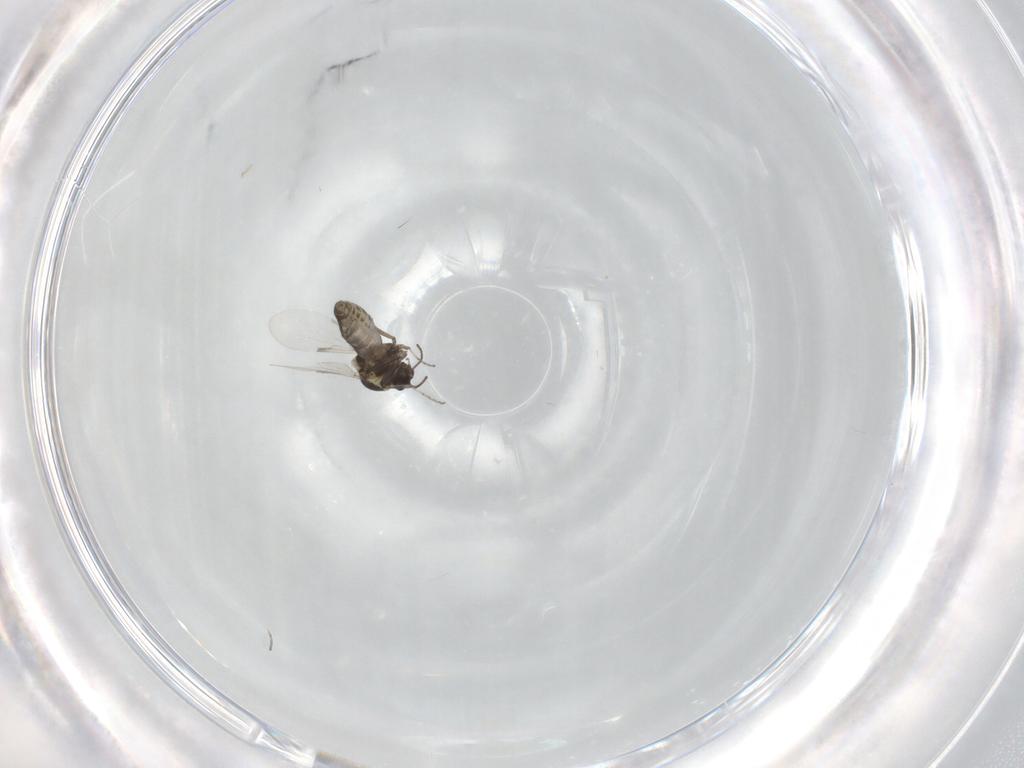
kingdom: Animalia
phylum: Arthropoda
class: Insecta
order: Diptera
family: Ceratopogonidae
